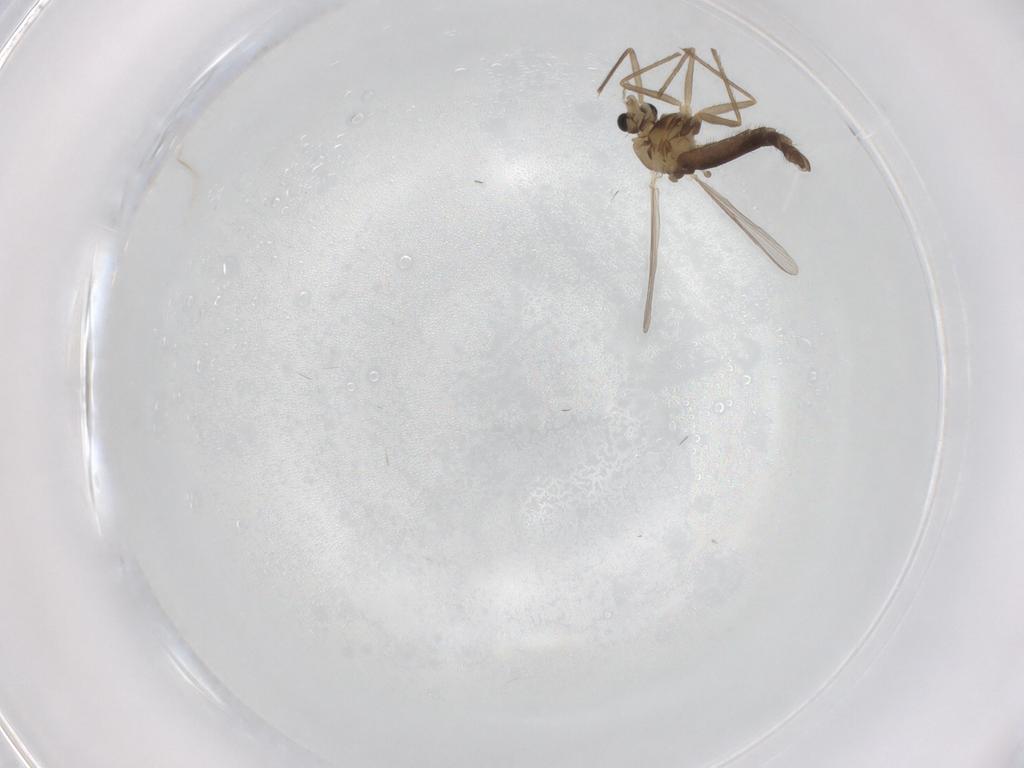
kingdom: Animalia
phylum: Arthropoda
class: Insecta
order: Diptera
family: Chironomidae
